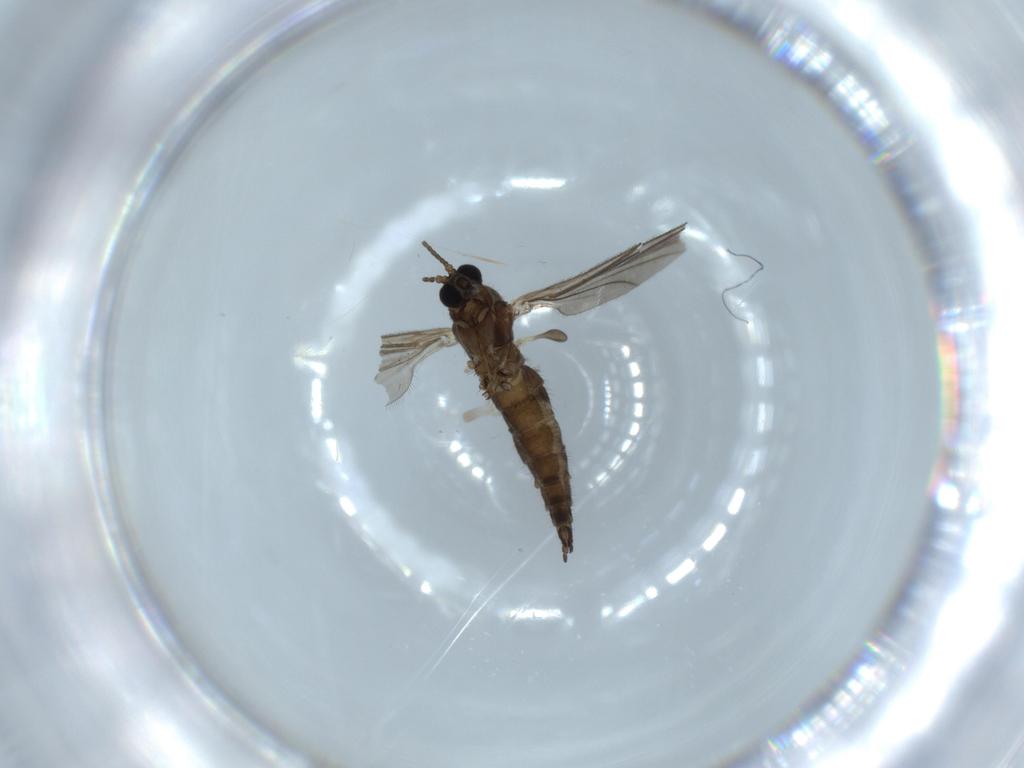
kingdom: Animalia
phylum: Arthropoda
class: Insecta
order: Diptera
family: Sciaridae
